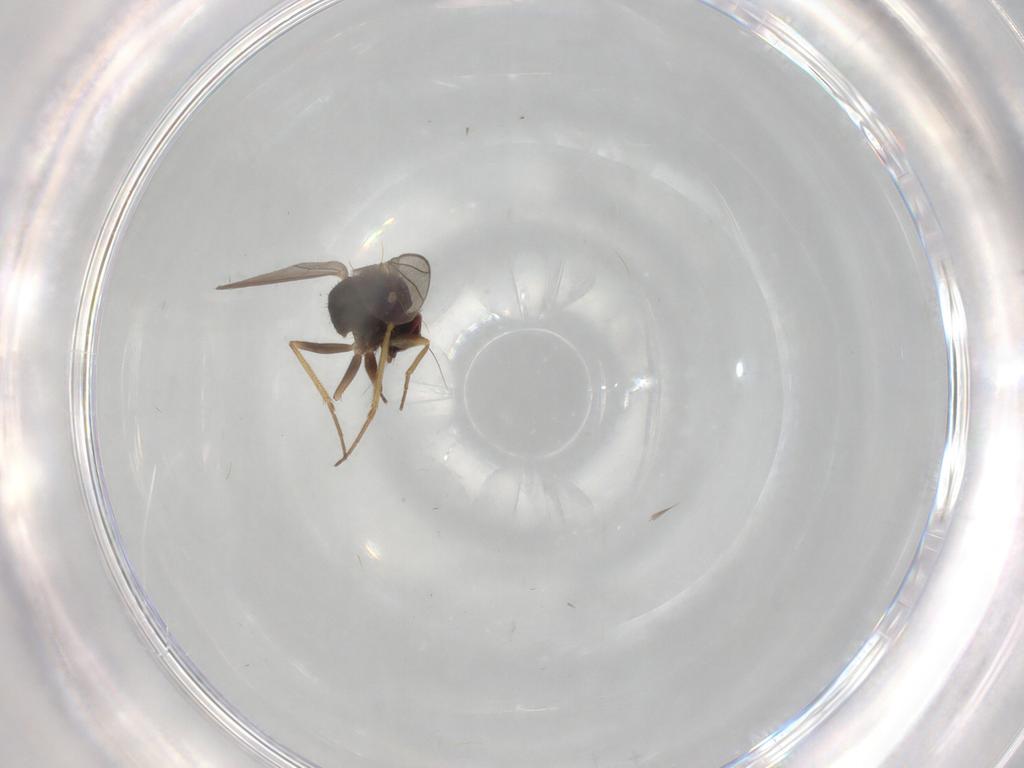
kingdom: Animalia
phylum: Arthropoda
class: Insecta
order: Diptera
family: Cecidomyiidae
